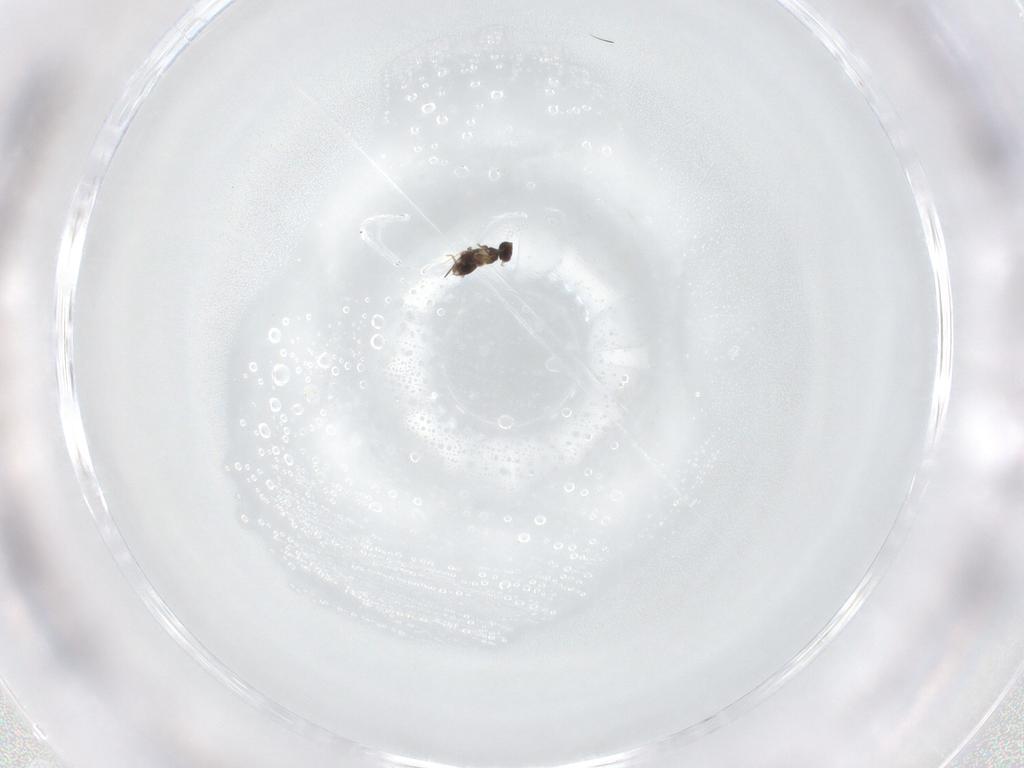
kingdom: Animalia
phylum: Arthropoda
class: Insecta
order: Hymenoptera
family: Mymaridae
